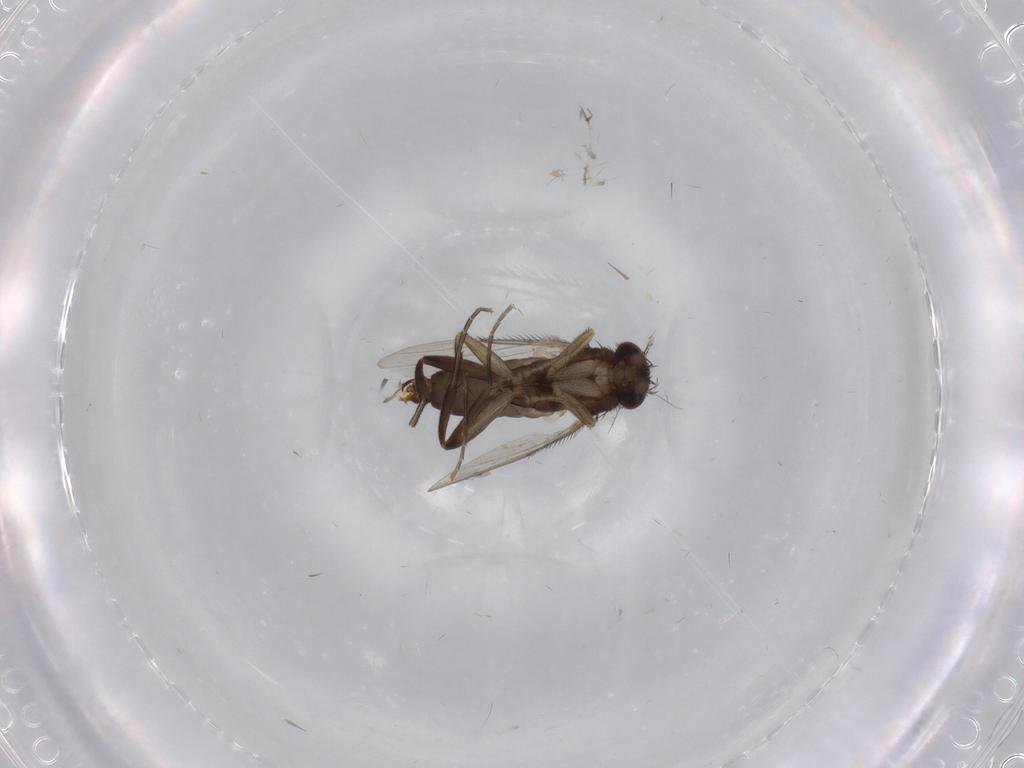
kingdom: Animalia
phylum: Arthropoda
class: Insecta
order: Diptera
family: Phoridae
